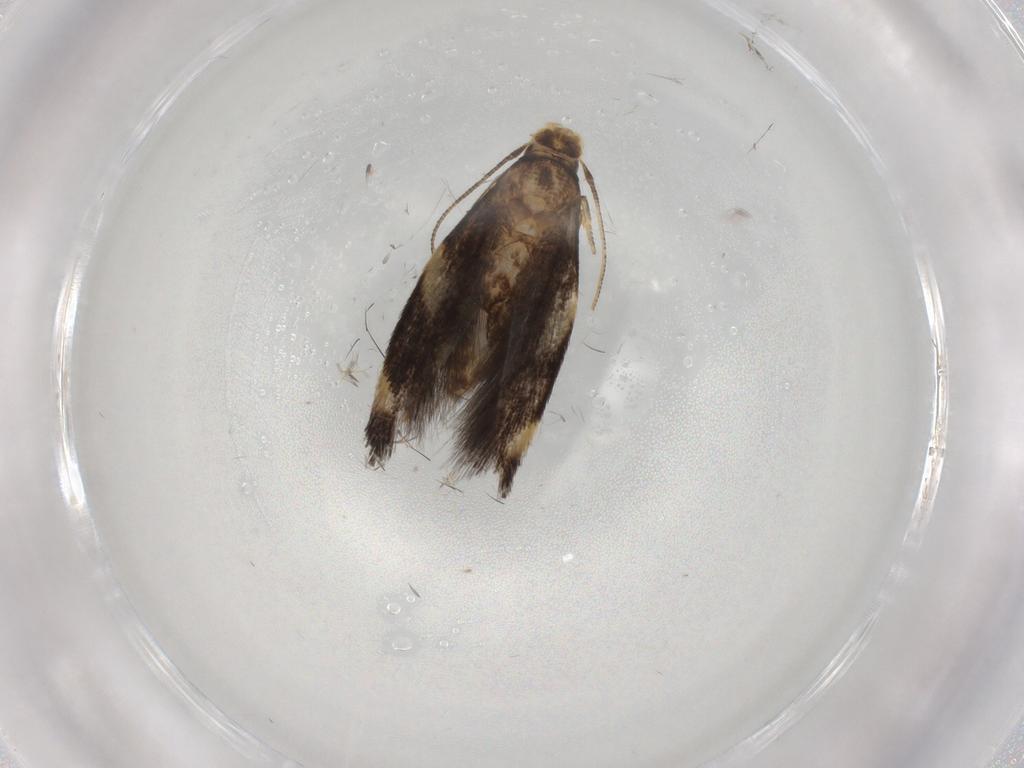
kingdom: Animalia
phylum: Arthropoda
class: Insecta
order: Lepidoptera
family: Elachistidae
